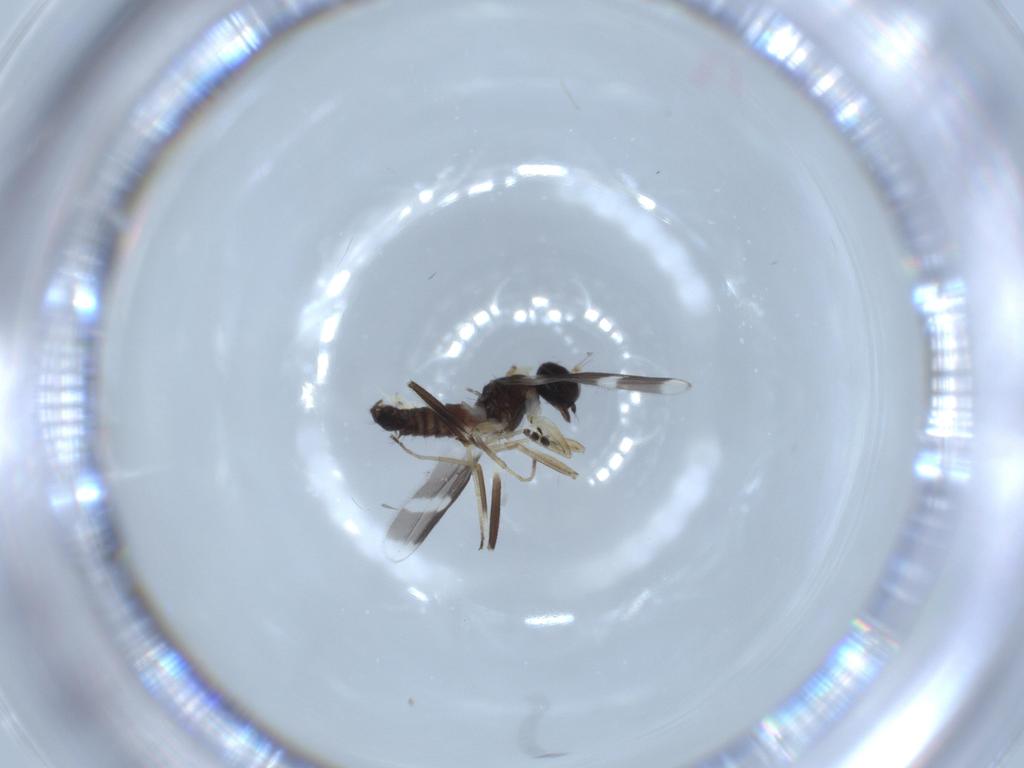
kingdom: Animalia
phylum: Arthropoda
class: Insecta
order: Diptera
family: Hybotidae
